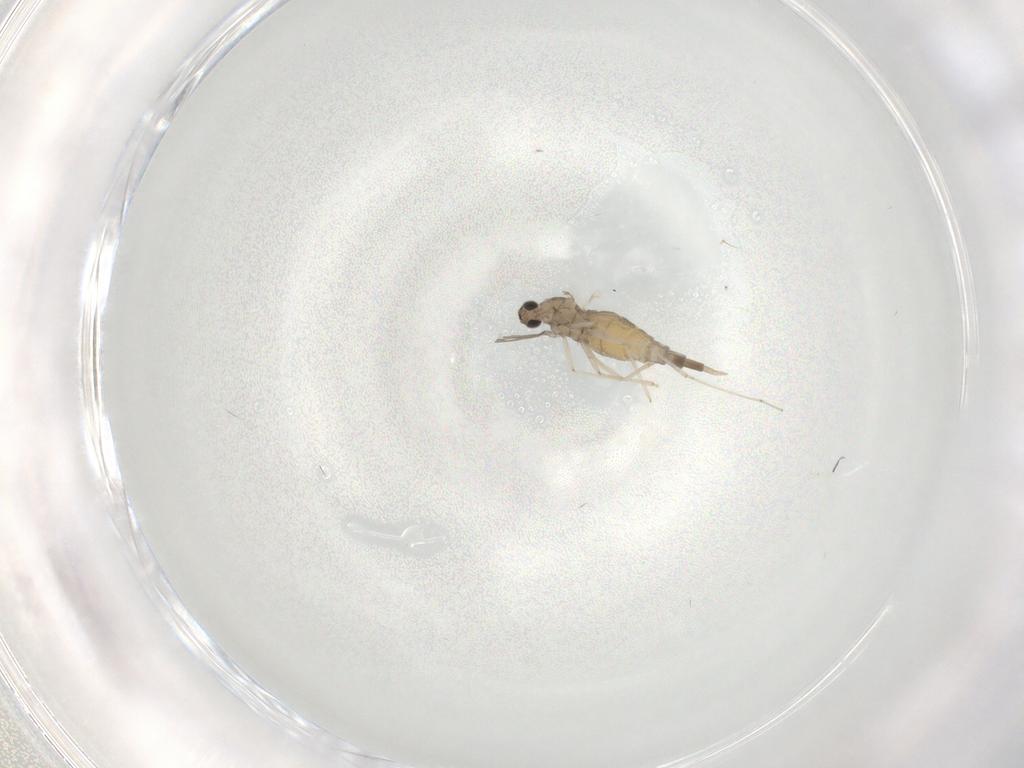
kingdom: Animalia
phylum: Arthropoda
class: Insecta
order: Diptera
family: Cecidomyiidae
